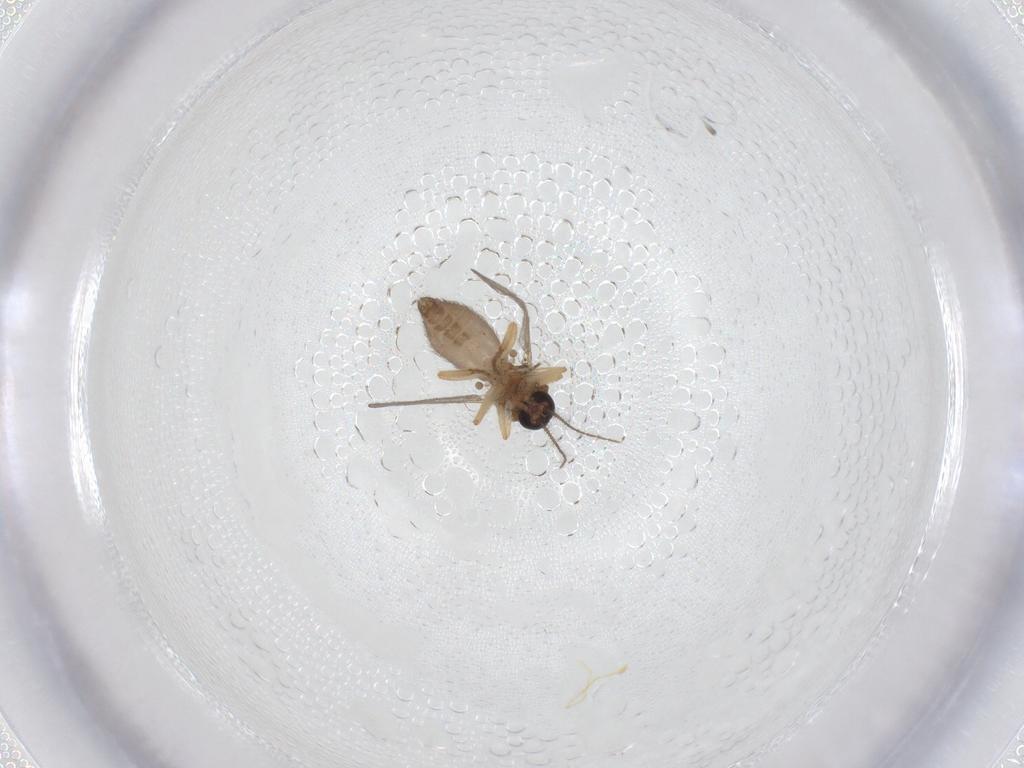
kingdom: Animalia
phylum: Arthropoda
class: Insecta
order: Diptera
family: Ceratopogonidae
